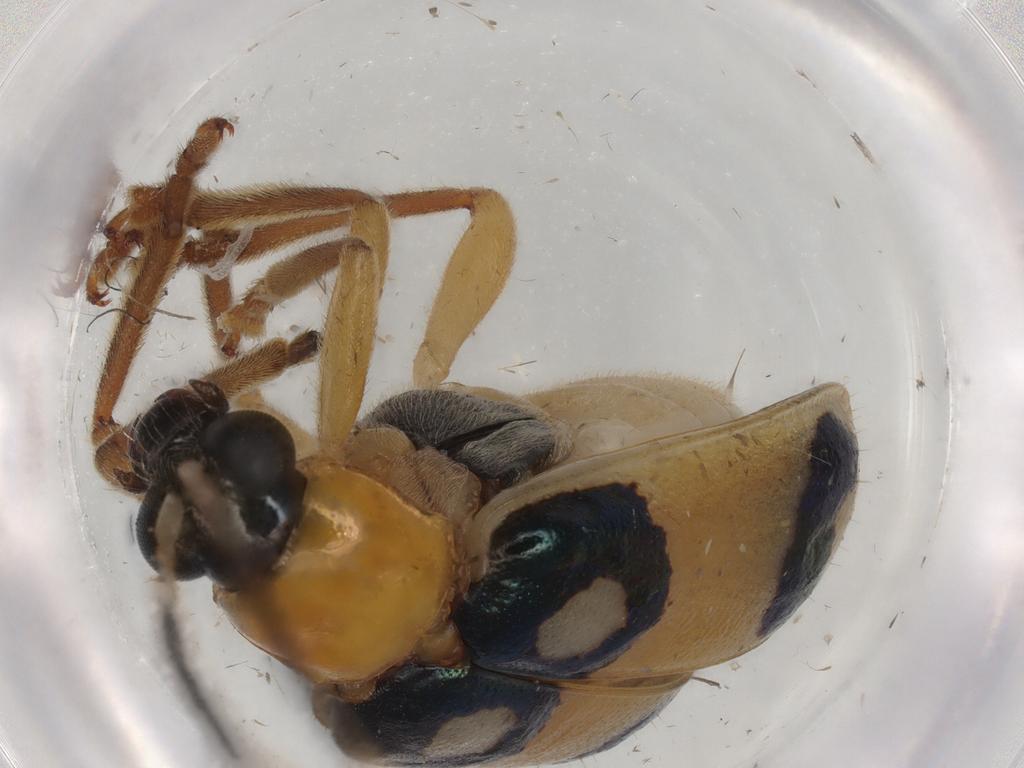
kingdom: Animalia
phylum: Arthropoda
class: Insecta
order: Coleoptera
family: Chrysomelidae
